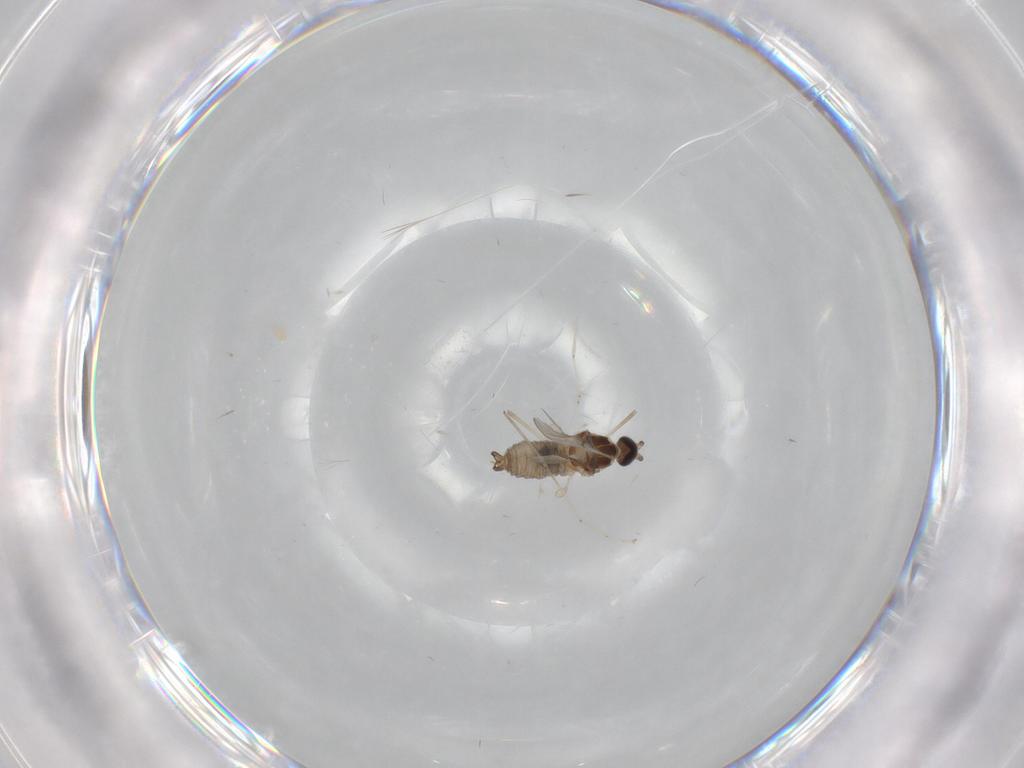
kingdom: Animalia
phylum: Arthropoda
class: Insecta
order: Diptera
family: Cecidomyiidae
